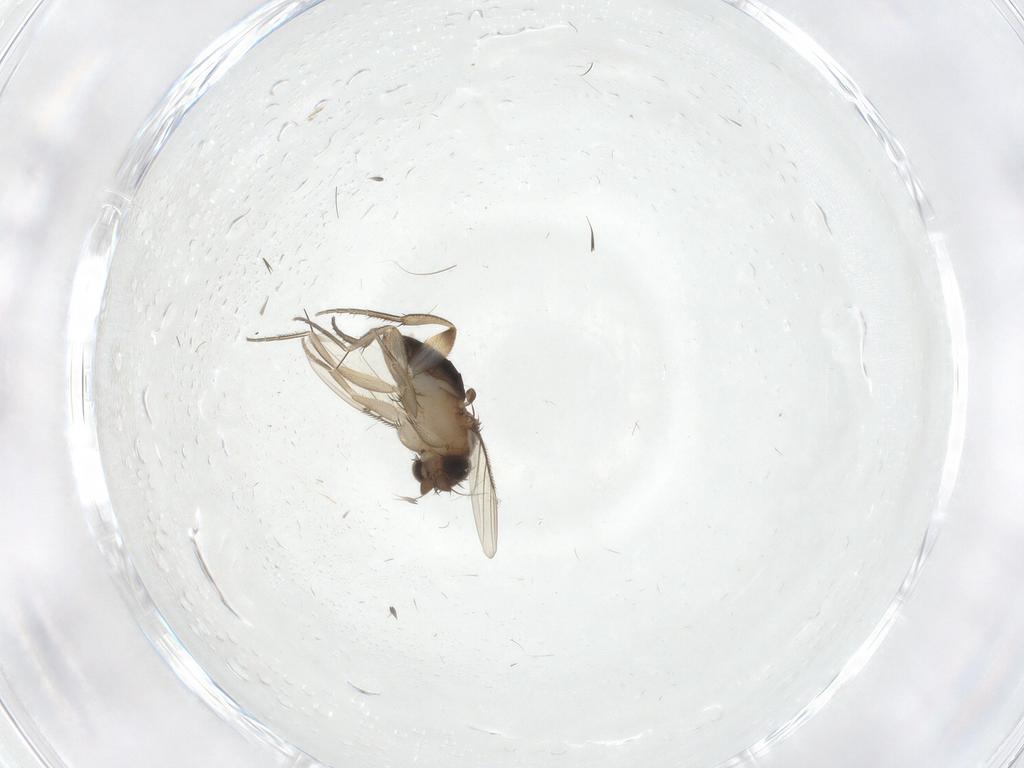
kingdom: Animalia
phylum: Arthropoda
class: Insecta
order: Diptera
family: Phoridae
